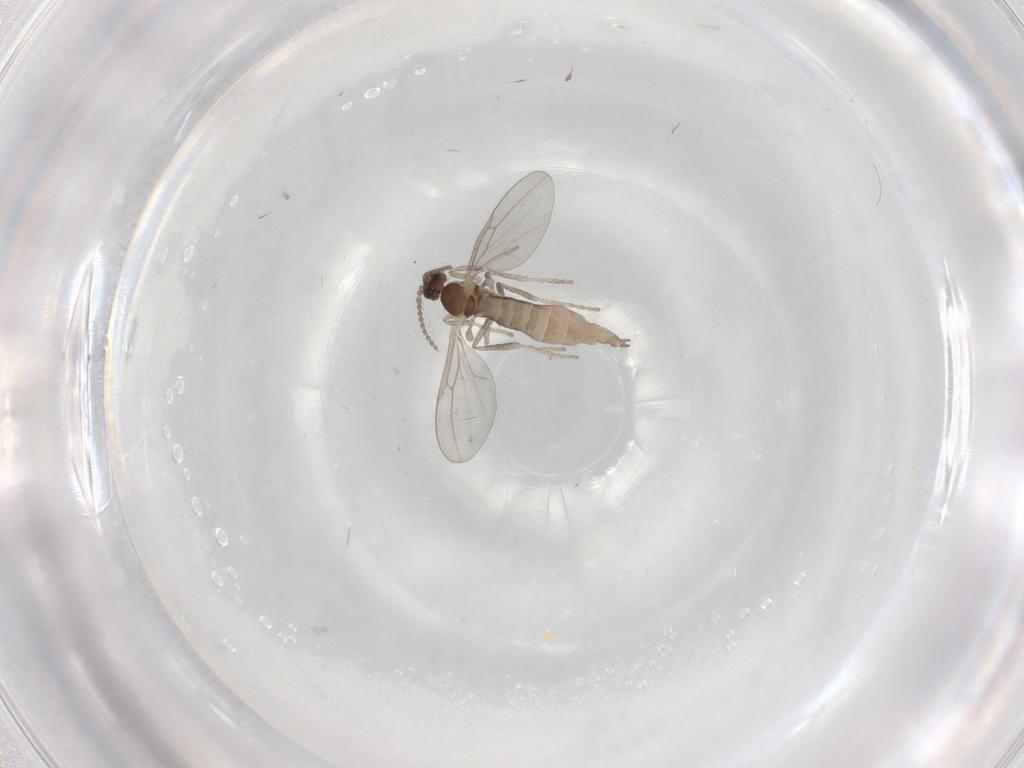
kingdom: Animalia
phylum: Arthropoda
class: Insecta
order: Diptera
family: Cecidomyiidae
